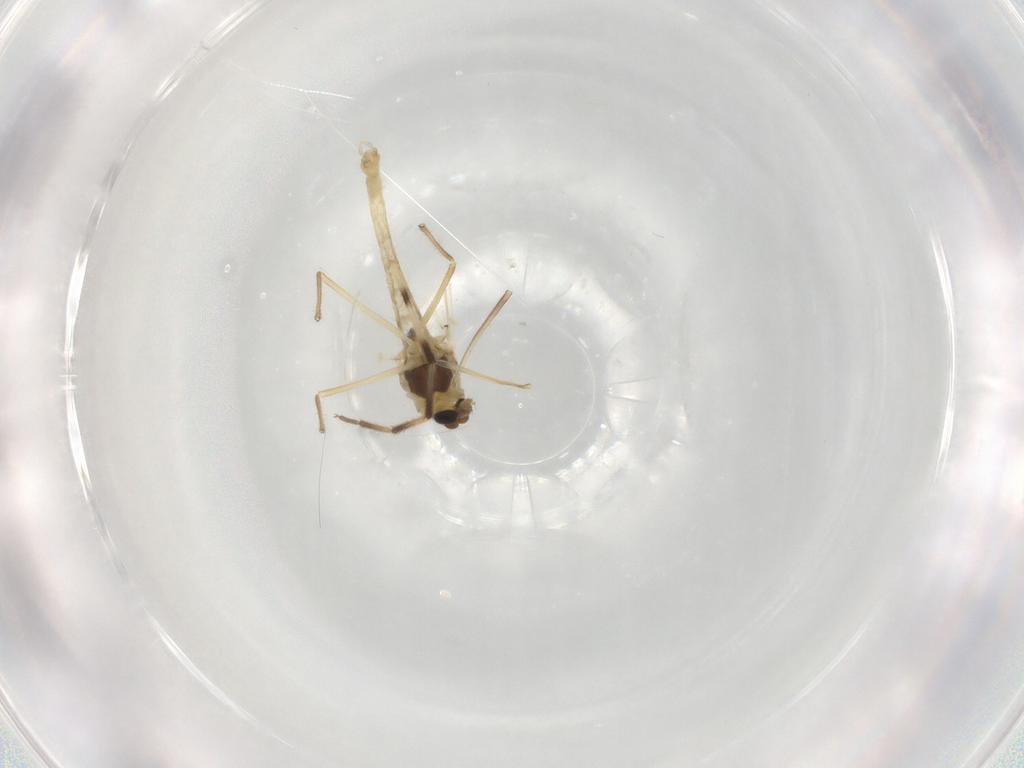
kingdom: Animalia
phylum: Arthropoda
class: Insecta
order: Diptera
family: Chironomidae
